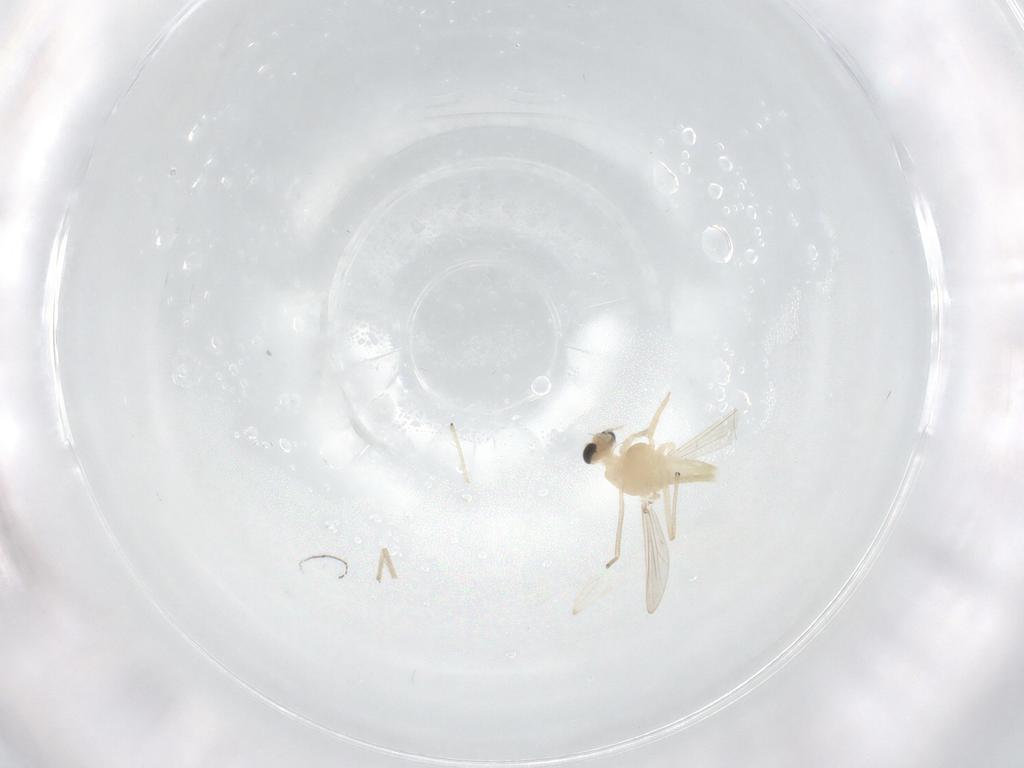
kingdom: Animalia
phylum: Arthropoda
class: Insecta
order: Diptera
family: Chironomidae
